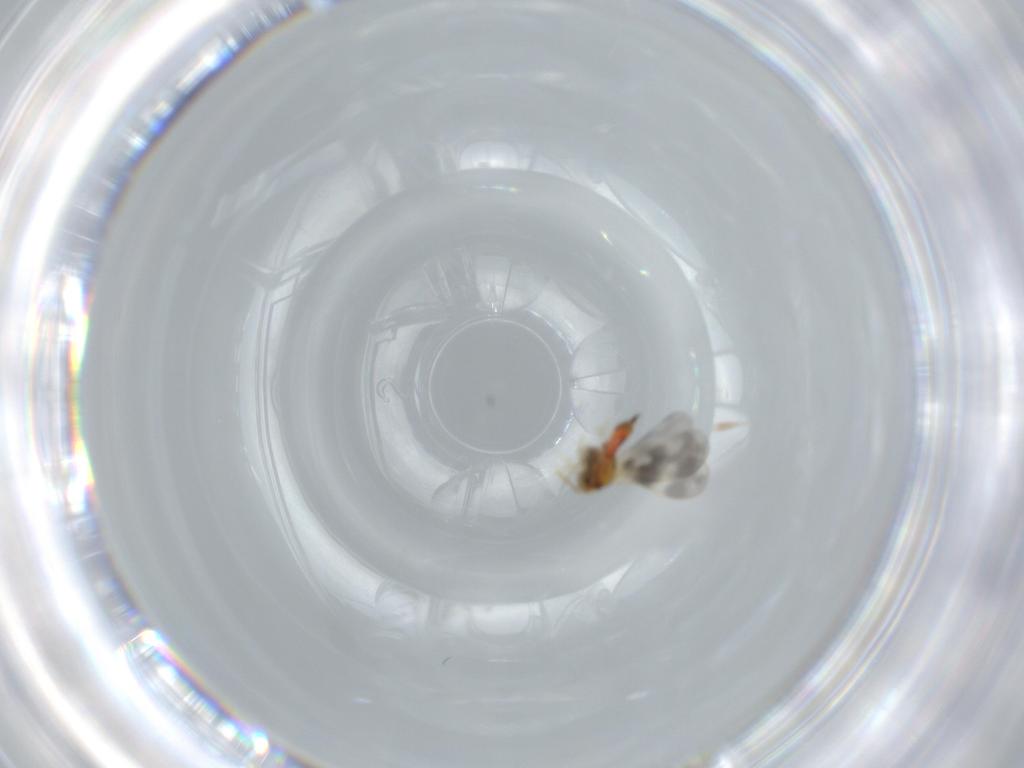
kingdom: Animalia
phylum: Arthropoda
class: Insecta
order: Hemiptera
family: Aleyrodidae
